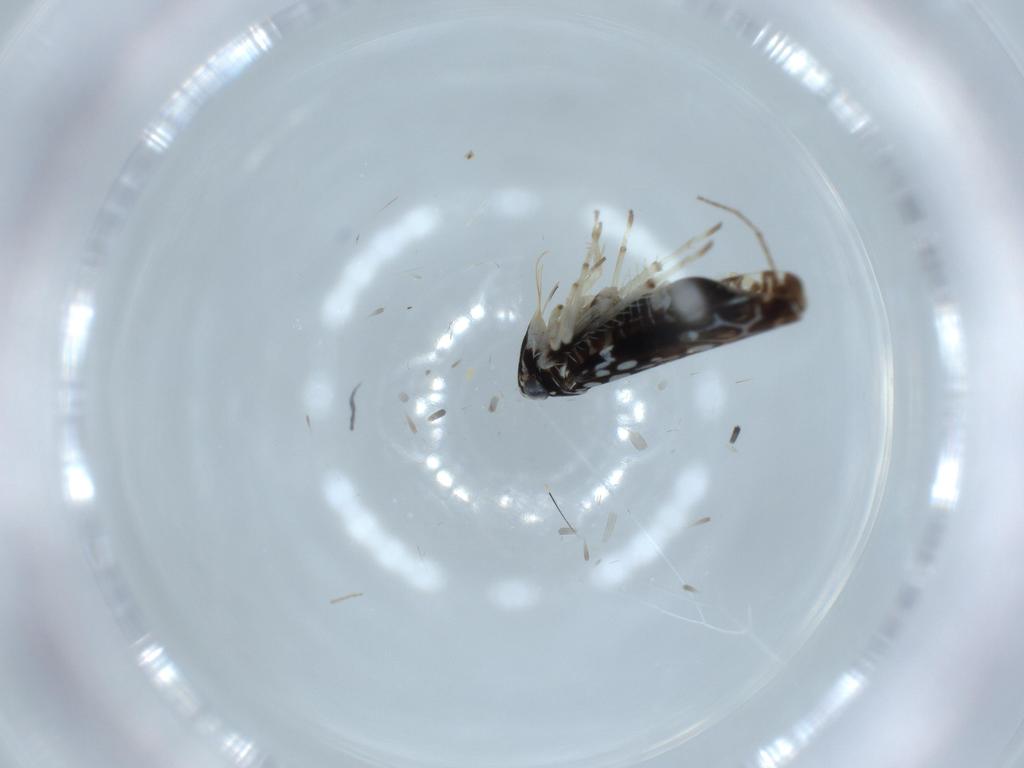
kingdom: Animalia
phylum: Arthropoda
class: Insecta
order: Hemiptera
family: Cicadellidae
